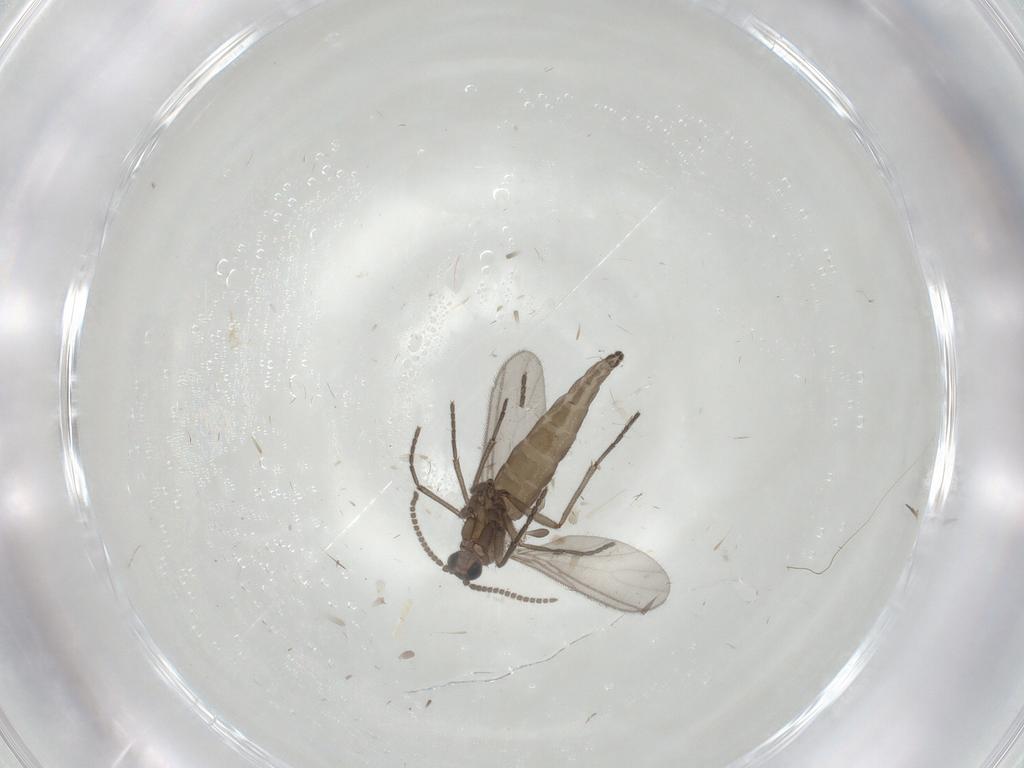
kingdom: Animalia
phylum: Arthropoda
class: Insecta
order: Diptera
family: Sciaridae
